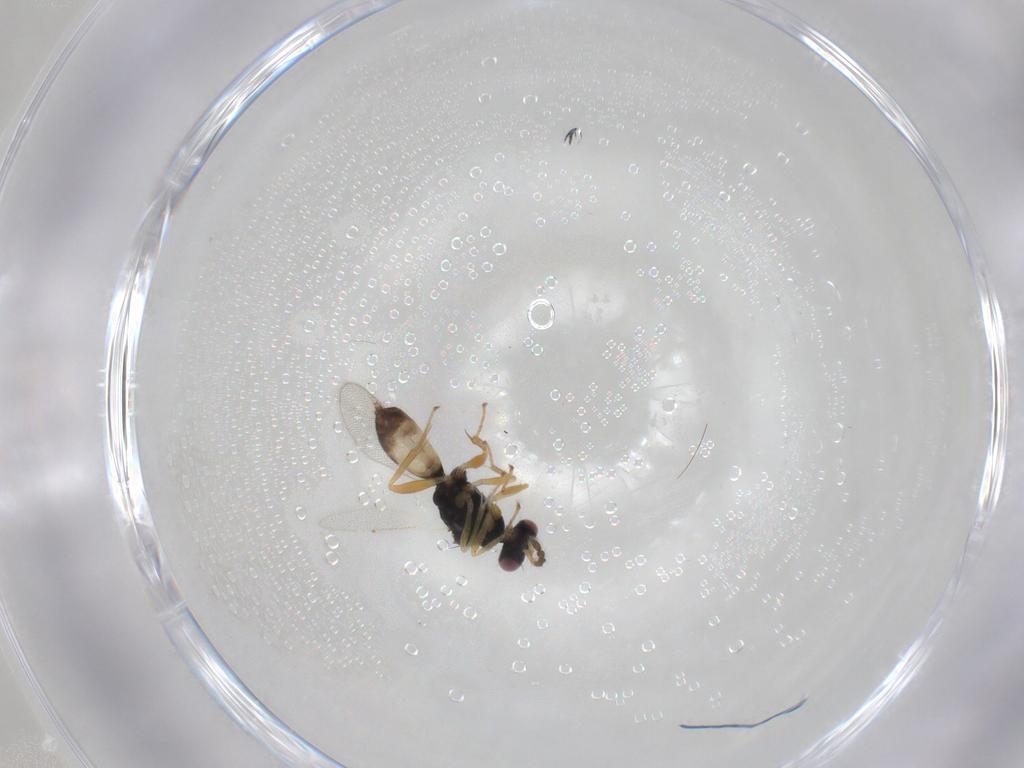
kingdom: Animalia
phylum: Arthropoda
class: Insecta
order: Hymenoptera
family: Eulophidae
